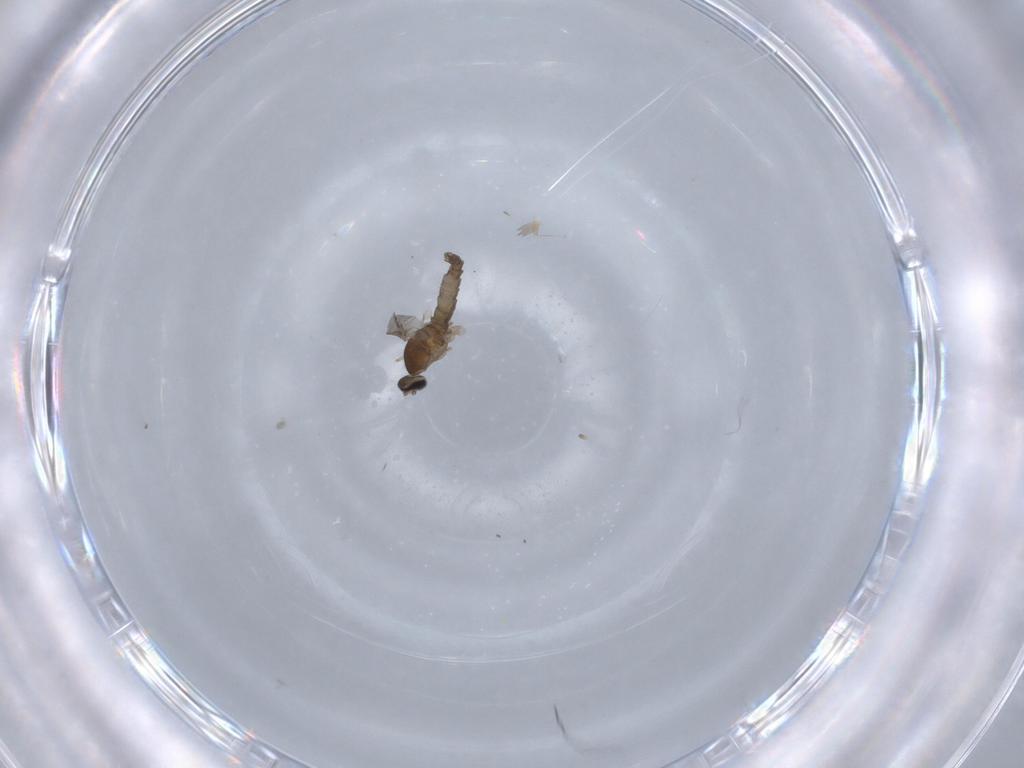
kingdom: Animalia
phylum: Arthropoda
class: Insecta
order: Diptera
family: Cecidomyiidae
